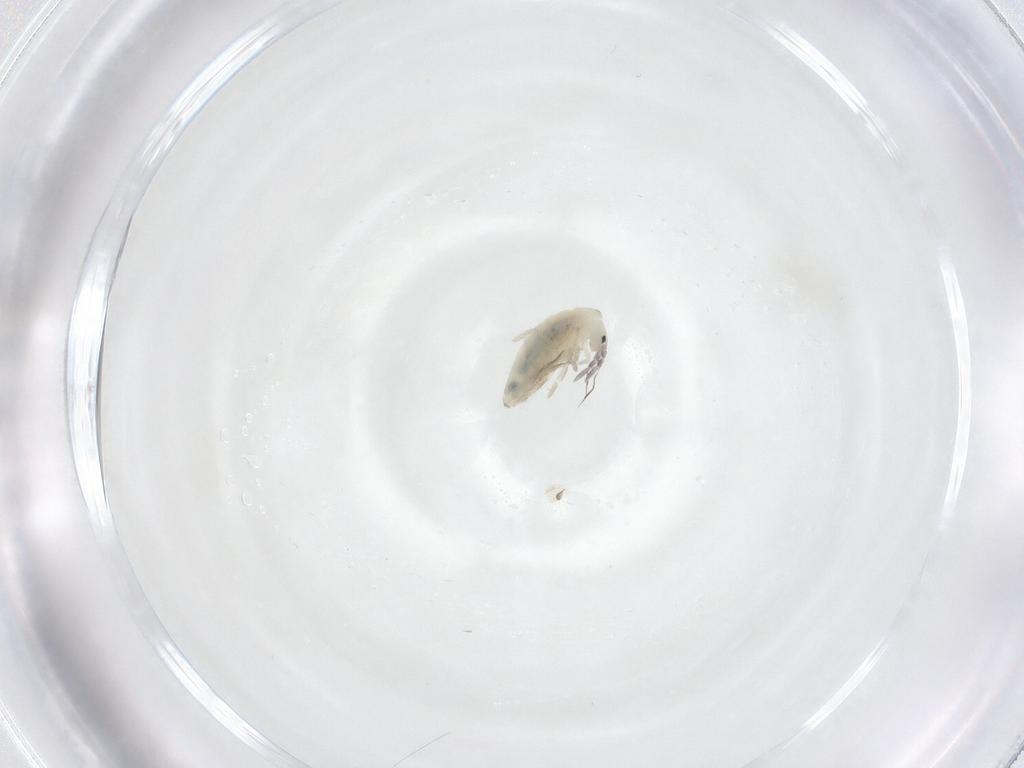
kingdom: Animalia
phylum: Arthropoda
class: Collembola
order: Entomobryomorpha
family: Entomobryidae
